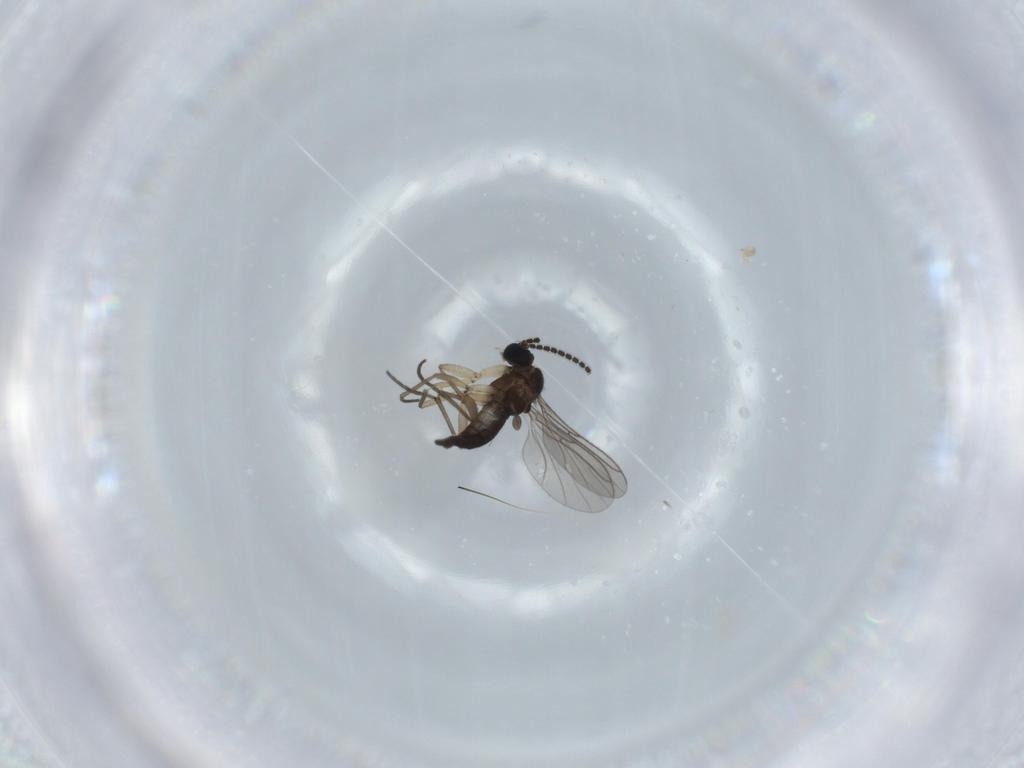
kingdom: Animalia
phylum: Arthropoda
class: Insecta
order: Diptera
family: Sciaridae
